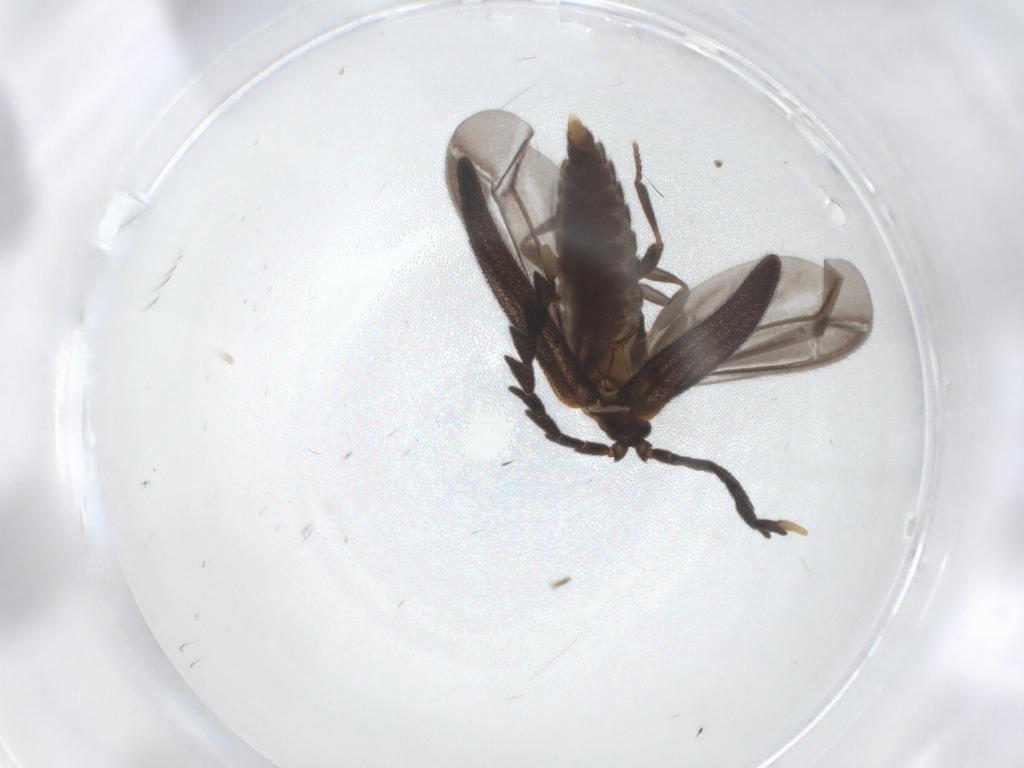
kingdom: Animalia
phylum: Arthropoda
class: Insecta
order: Coleoptera
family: Lycidae
